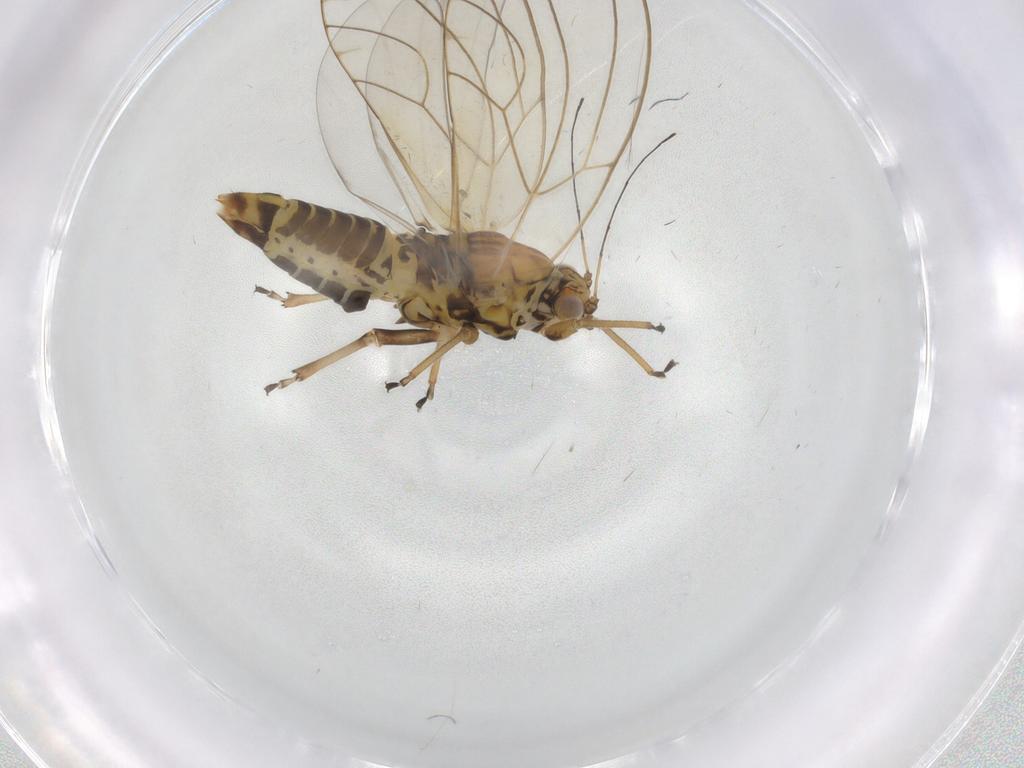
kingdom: Animalia
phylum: Arthropoda
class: Insecta
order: Hemiptera
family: Triozidae
